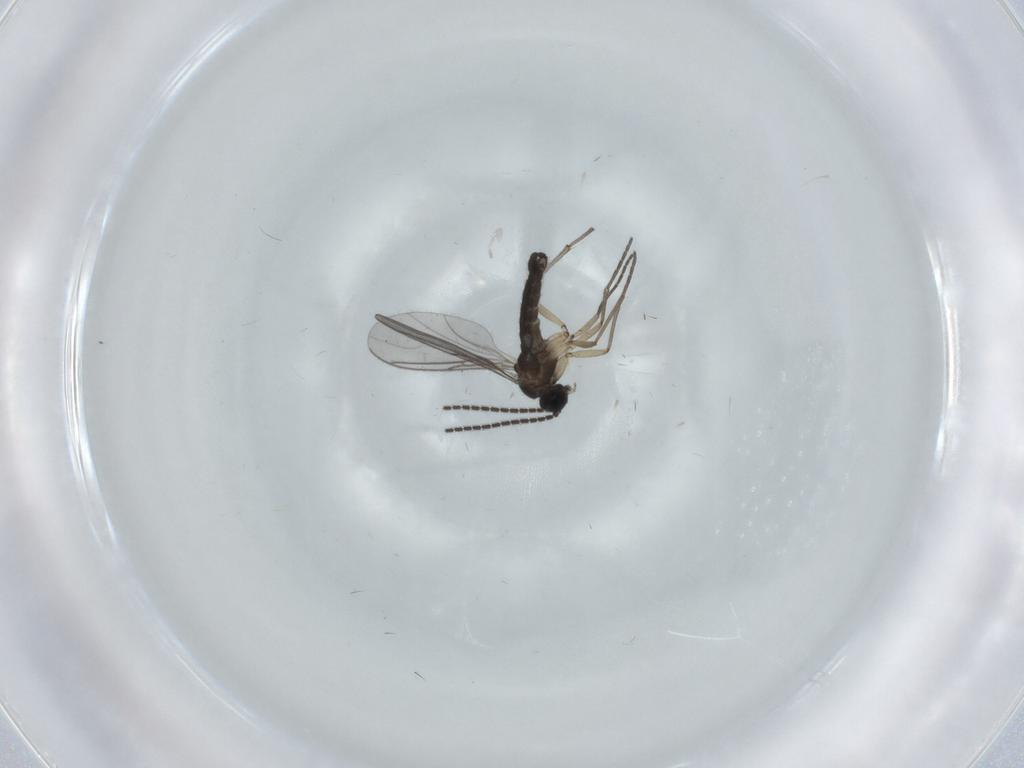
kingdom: Animalia
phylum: Arthropoda
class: Insecta
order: Diptera
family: Sciaridae
